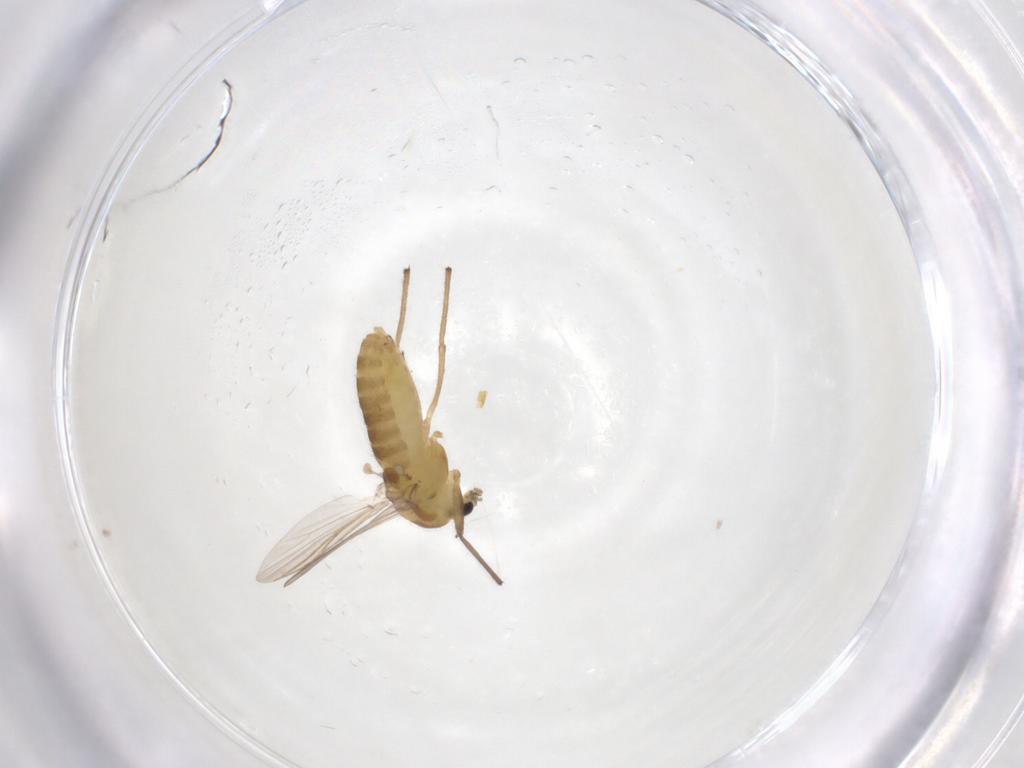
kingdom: Animalia
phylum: Arthropoda
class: Insecta
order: Diptera
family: Chironomidae
